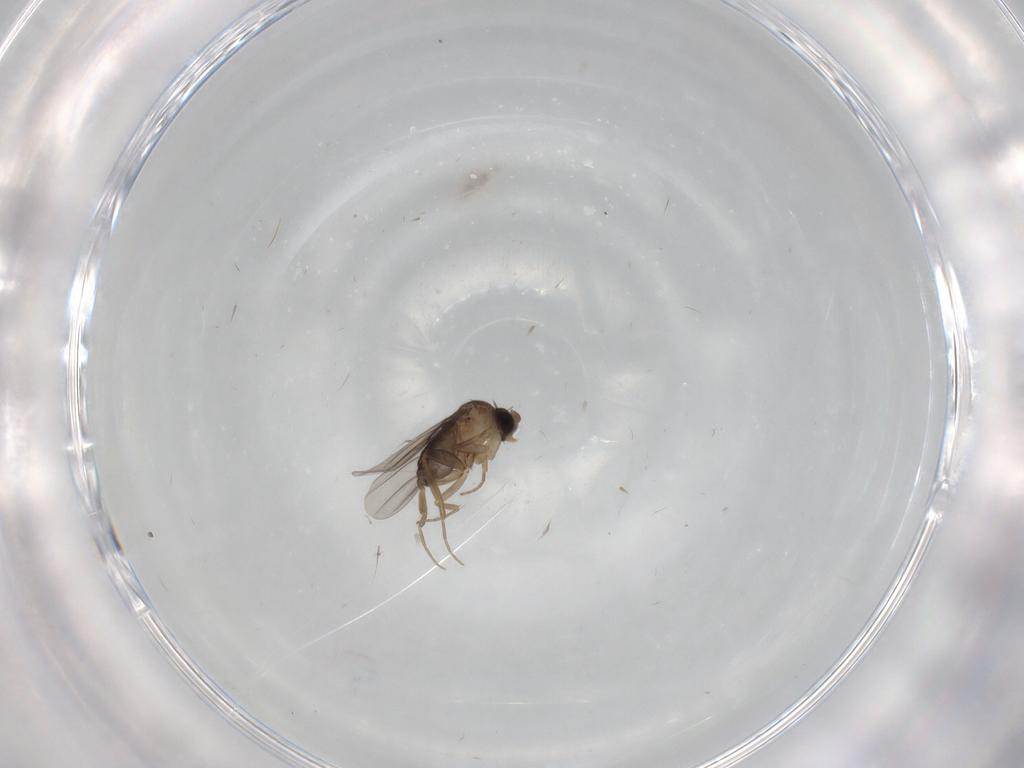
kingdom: Animalia
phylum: Arthropoda
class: Insecta
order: Diptera
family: Phoridae
